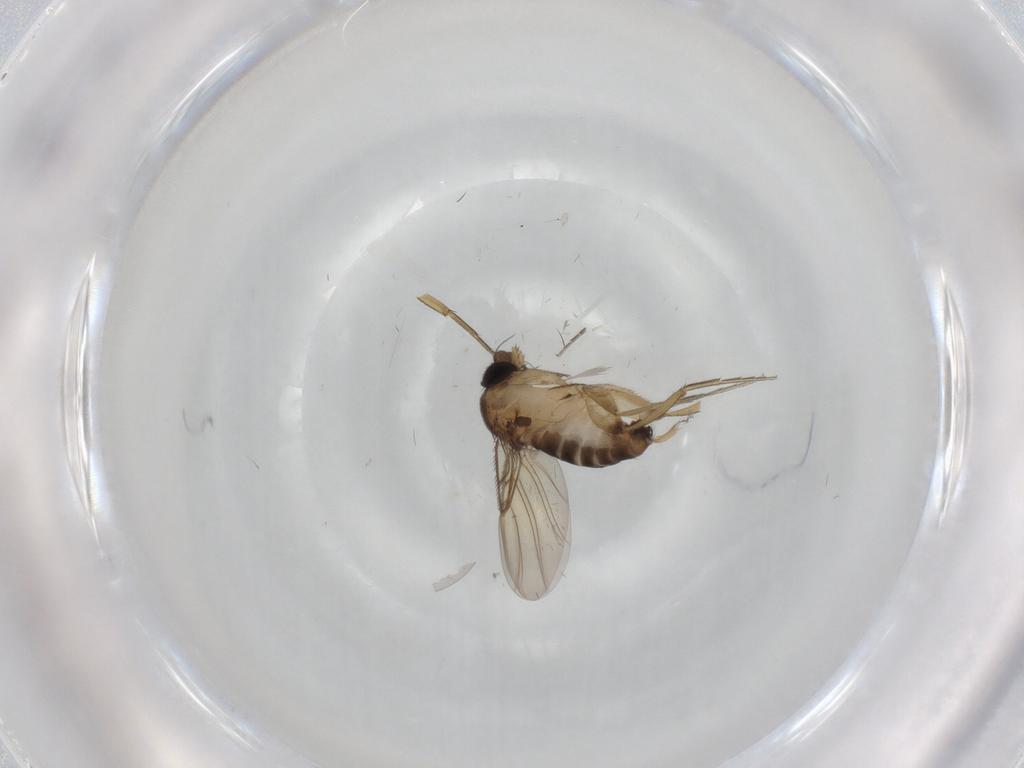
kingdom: Animalia
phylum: Arthropoda
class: Insecta
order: Diptera
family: Phoridae
